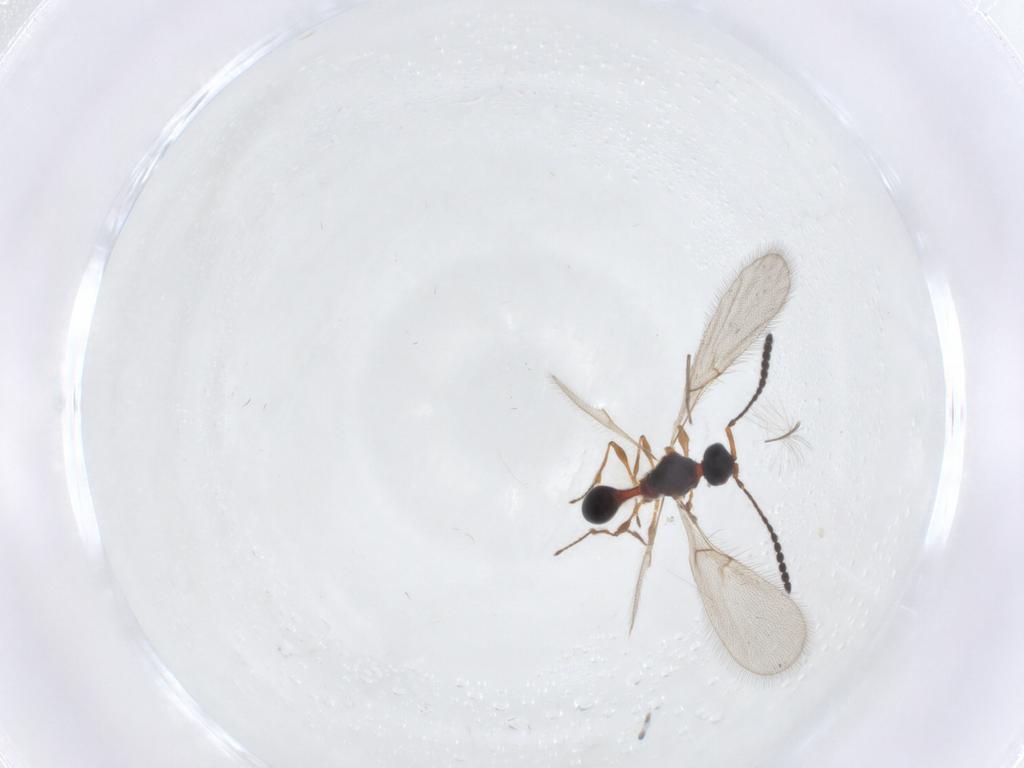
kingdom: Animalia
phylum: Arthropoda
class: Insecta
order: Hymenoptera
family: Diapriidae
